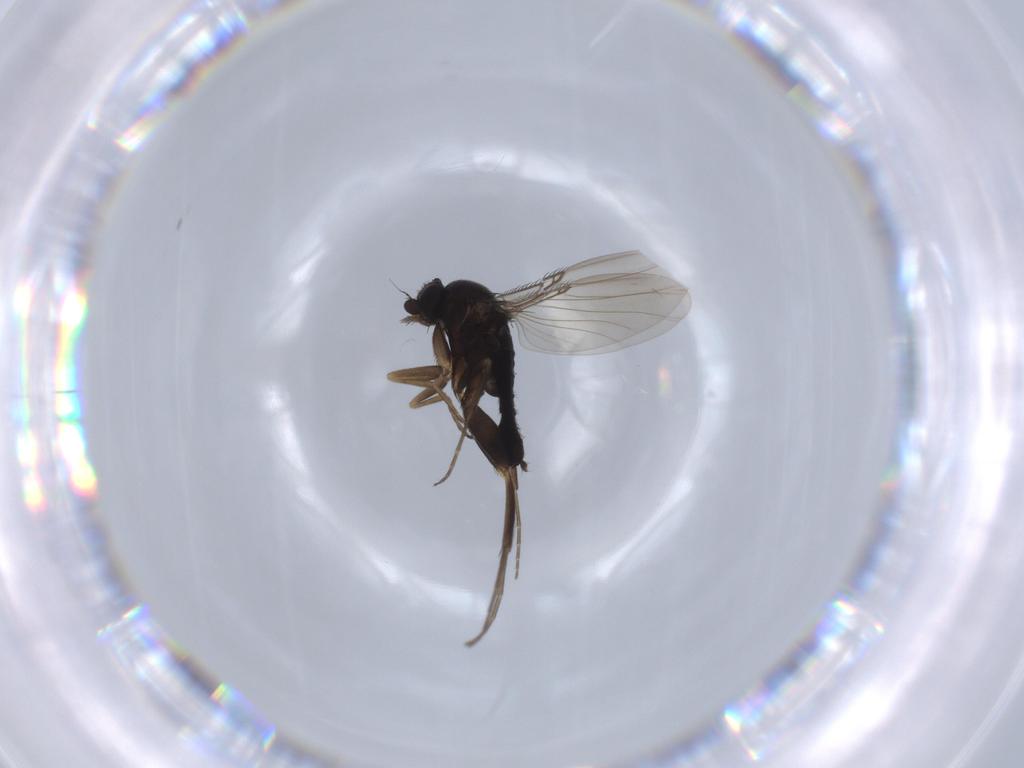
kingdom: Animalia
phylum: Arthropoda
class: Insecta
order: Diptera
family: Phoridae
